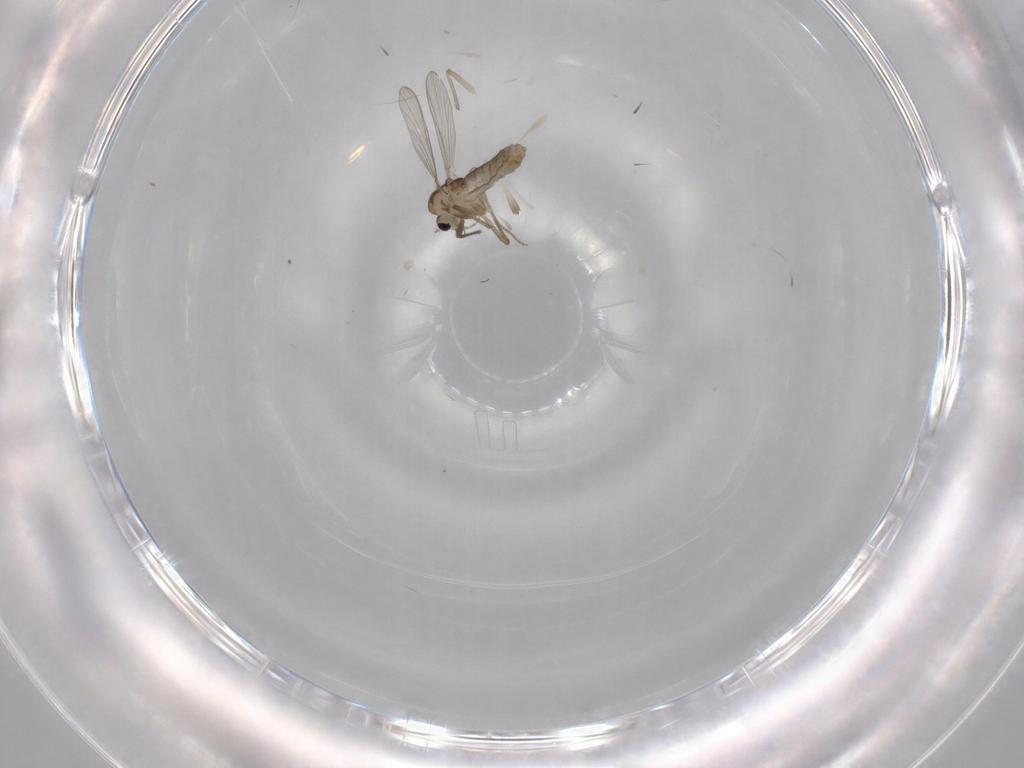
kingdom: Animalia
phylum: Arthropoda
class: Insecta
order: Diptera
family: Chironomidae
